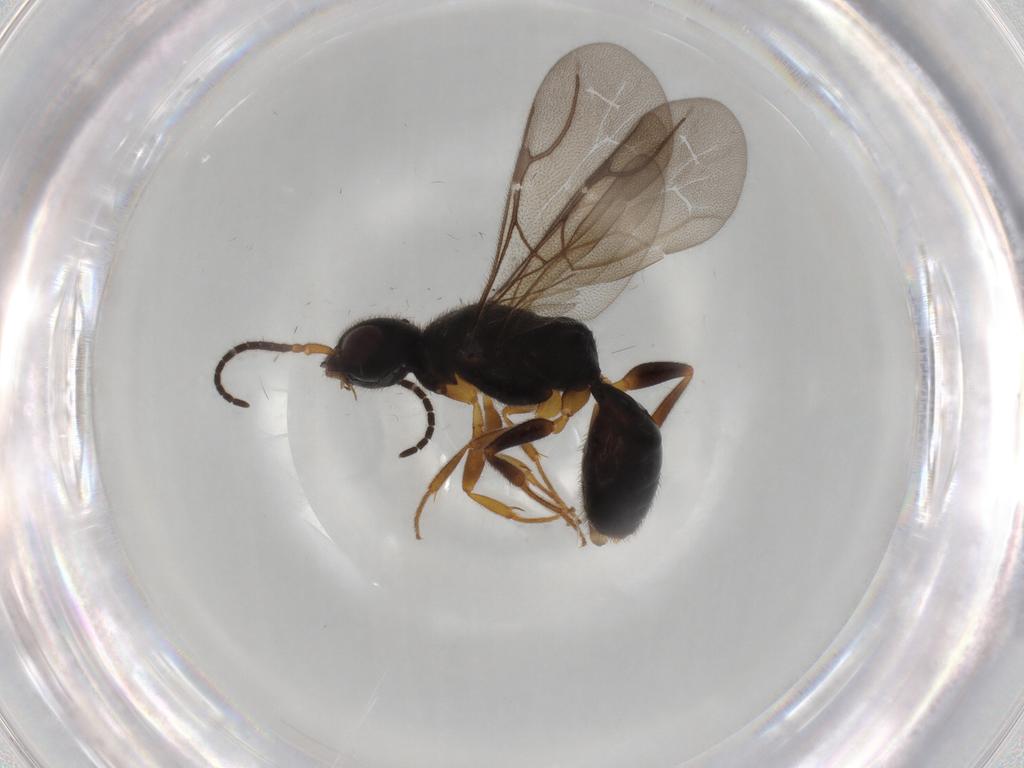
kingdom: Animalia
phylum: Arthropoda
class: Insecta
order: Hymenoptera
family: Bethylidae
